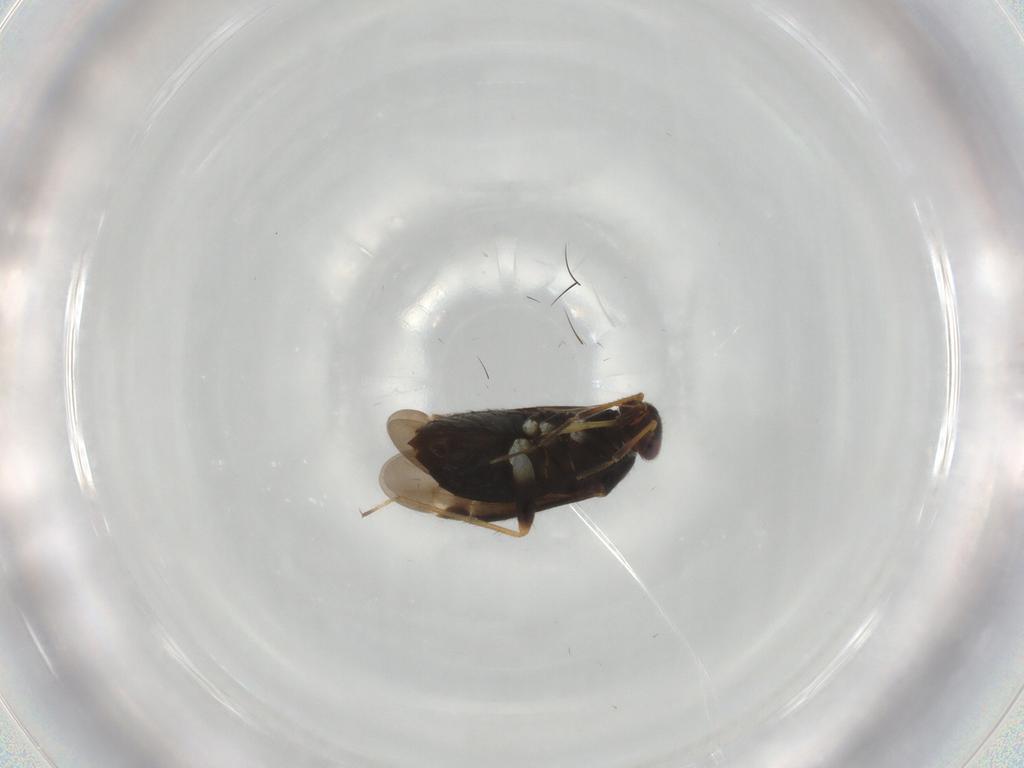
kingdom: Animalia
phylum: Arthropoda
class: Insecta
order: Hemiptera
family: Miridae
